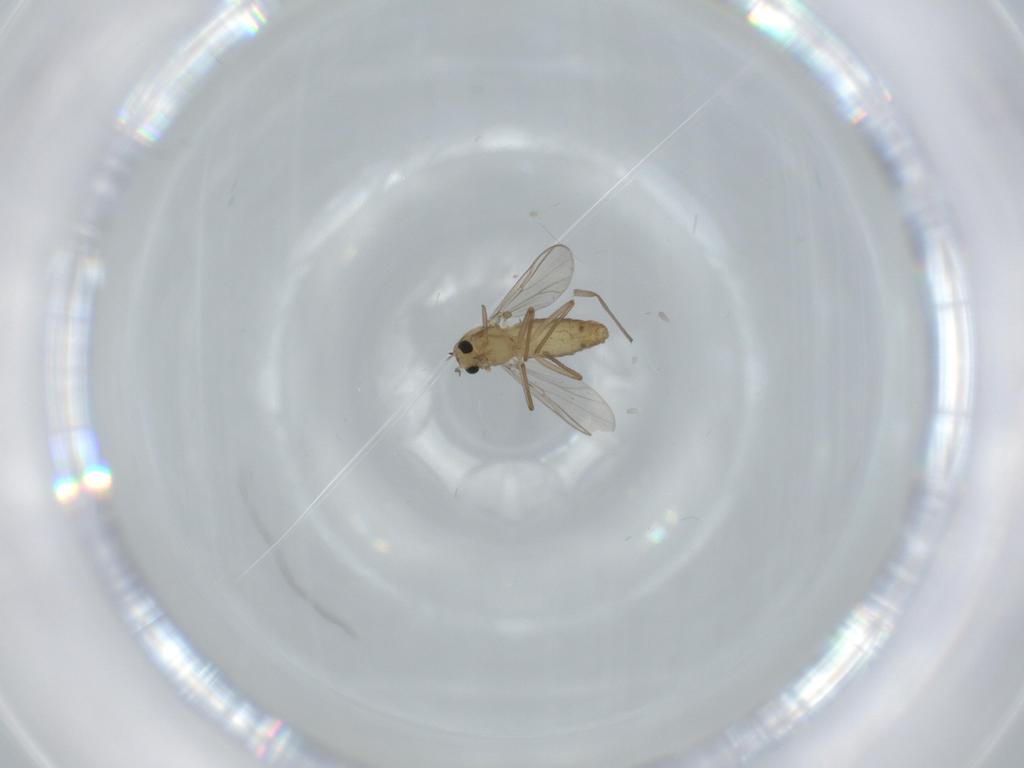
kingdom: Animalia
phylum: Arthropoda
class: Insecta
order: Diptera
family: Chironomidae
